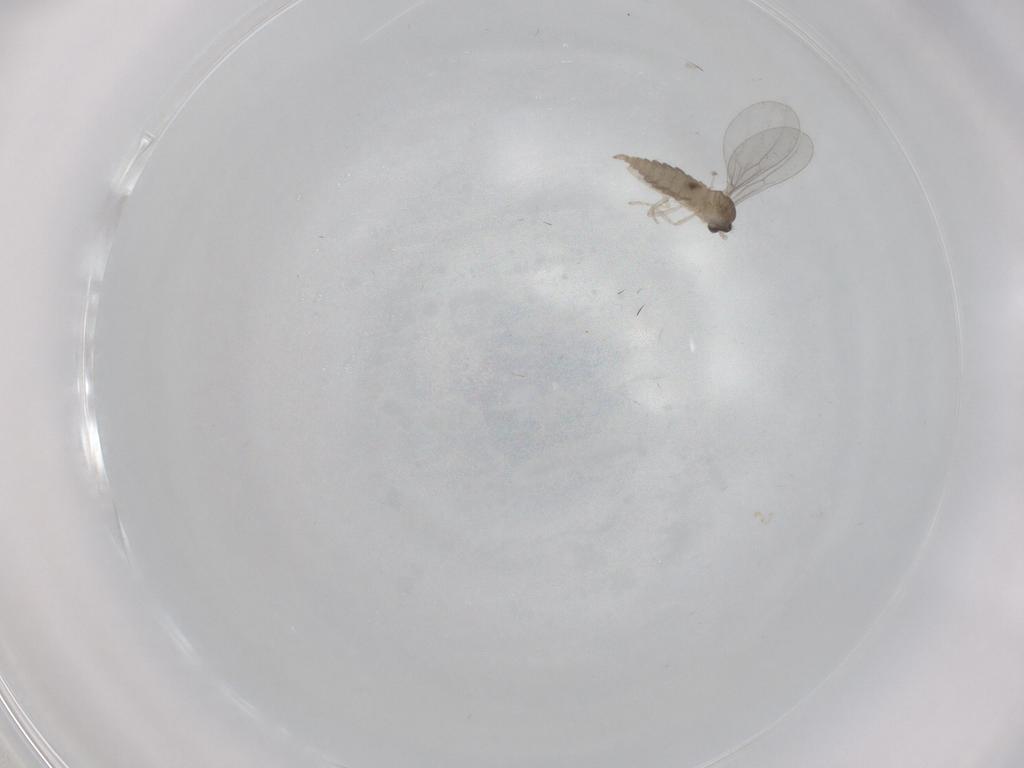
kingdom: Animalia
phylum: Arthropoda
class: Insecta
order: Diptera
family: Cecidomyiidae
